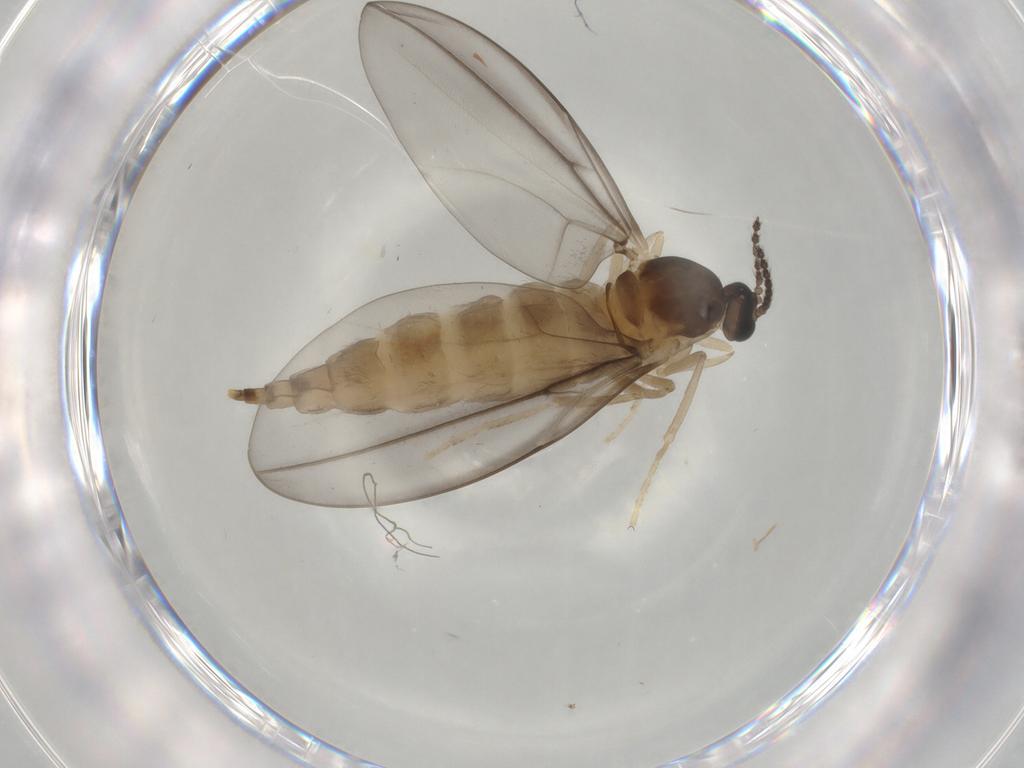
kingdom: Animalia
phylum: Arthropoda
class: Insecta
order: Diptera
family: Cecidomyiidae
